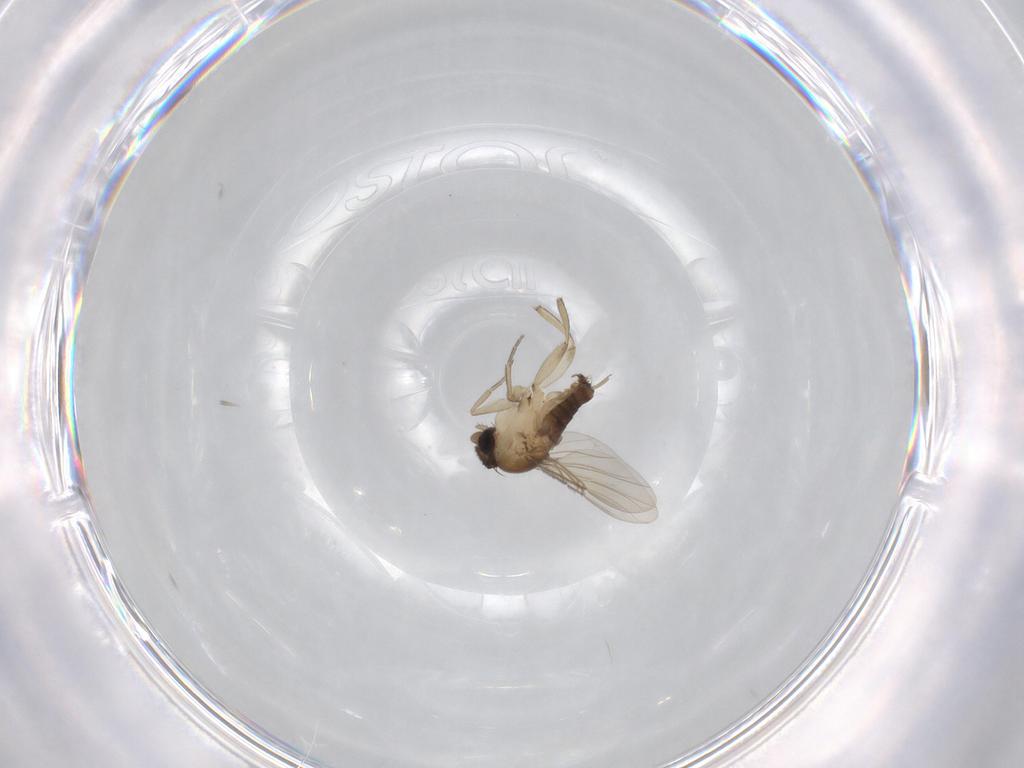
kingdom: Animalia
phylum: Arthropoda
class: Insecta
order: Diptera
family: Phoridae
